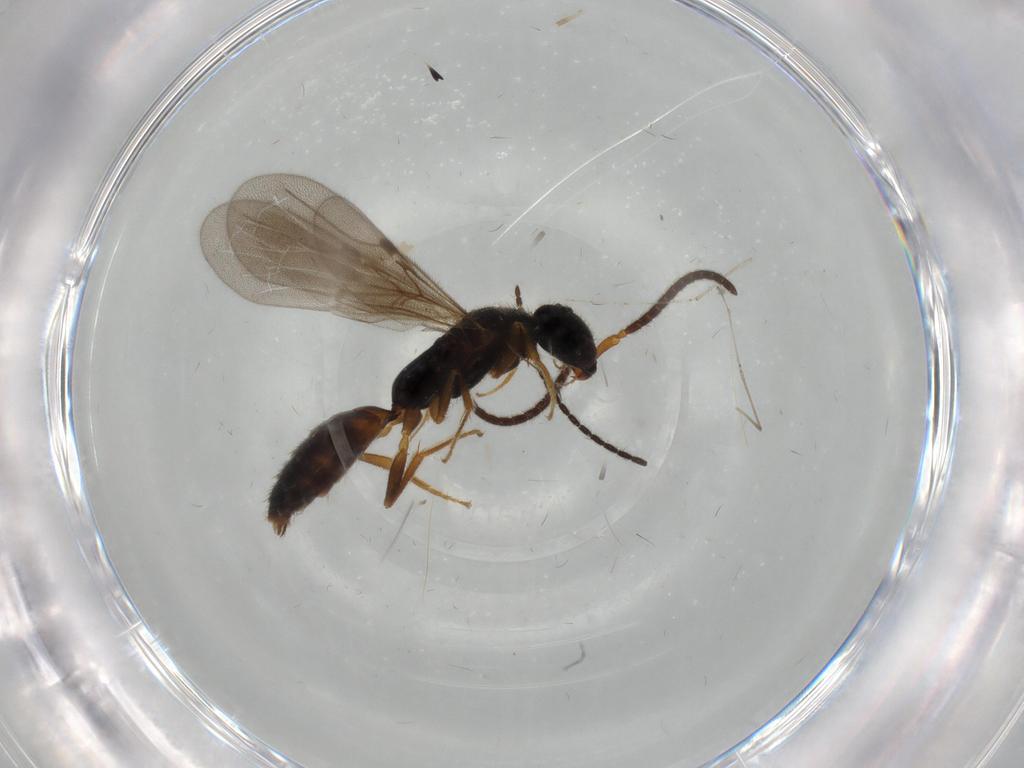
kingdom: Animalia
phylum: Arthropoda
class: Insecta
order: Hymenoptera
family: Bethylidae
